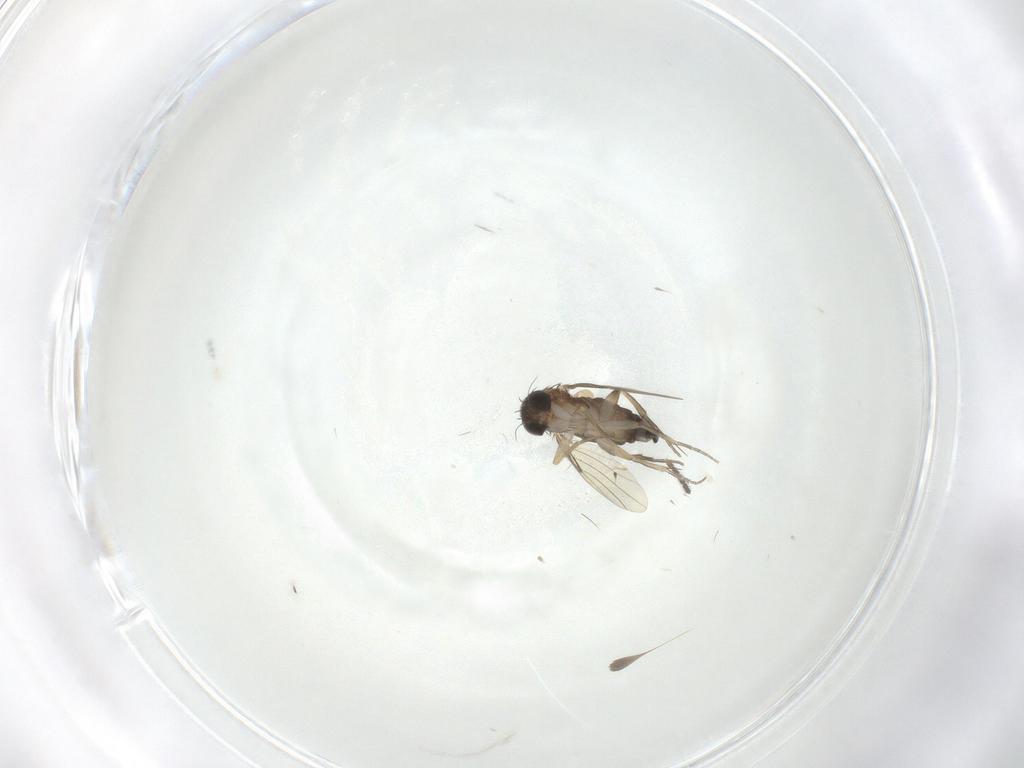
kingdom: Animalia
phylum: Arthropoda
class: Insecta
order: Diptera
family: Phoridae
